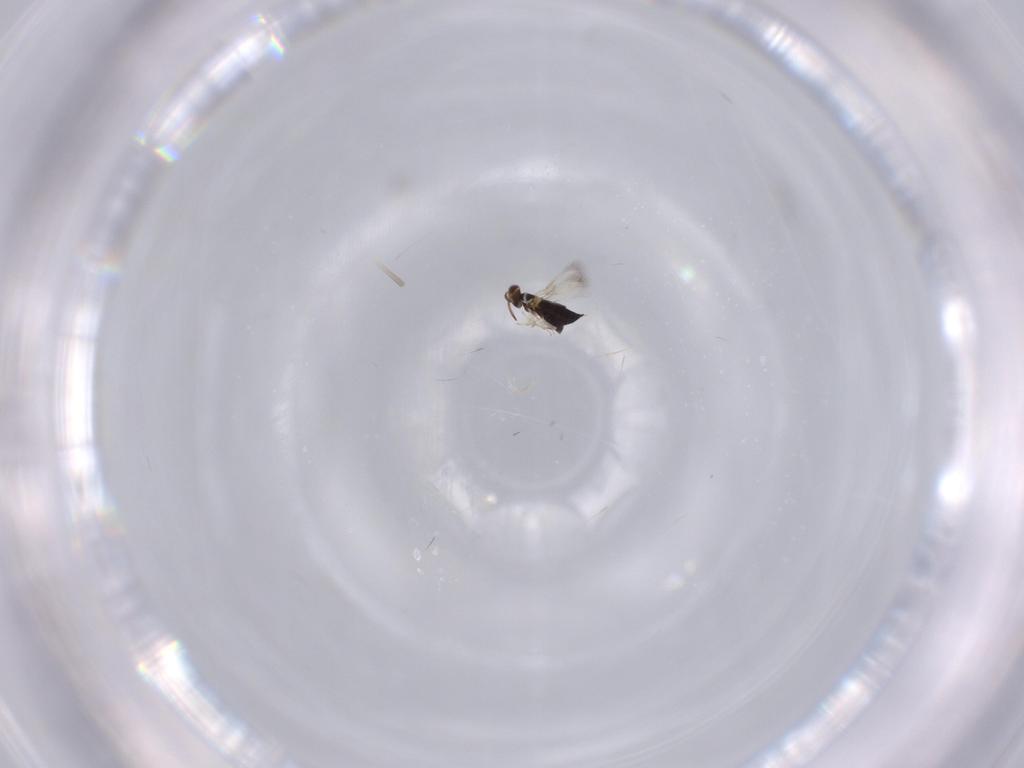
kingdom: Animalia
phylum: Arthropoda
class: Insecta
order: Hymenoptera
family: Signiphoridae
